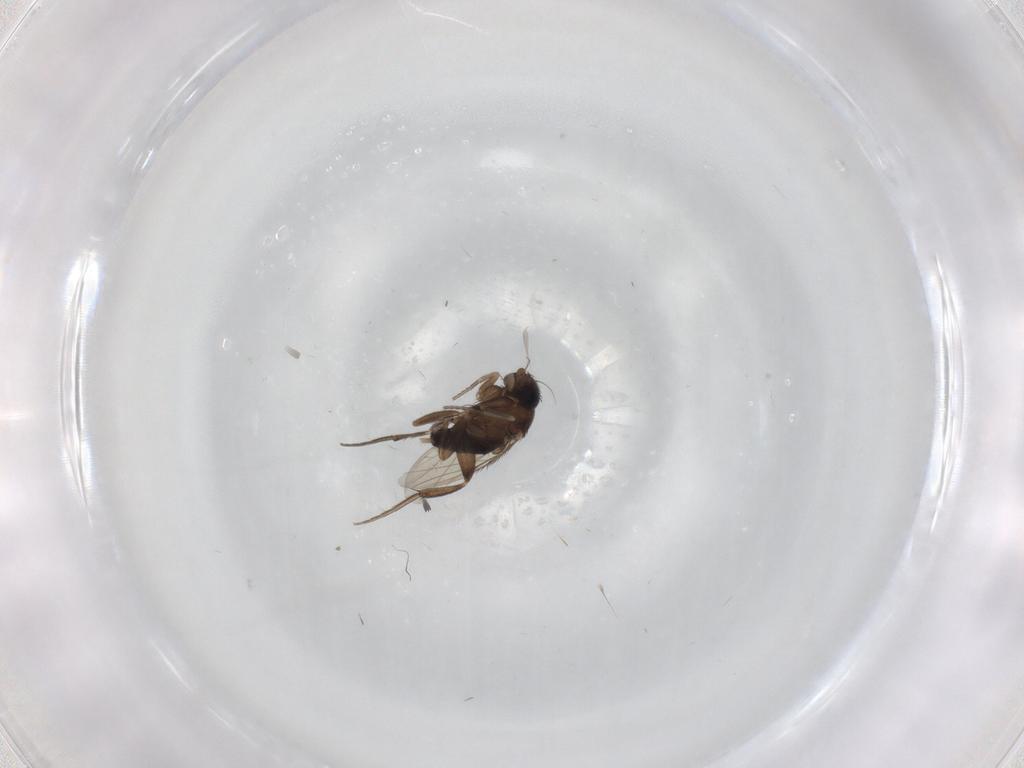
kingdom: Animalia
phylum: Arthropoda
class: Insecta
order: Diptera
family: Phoridae
